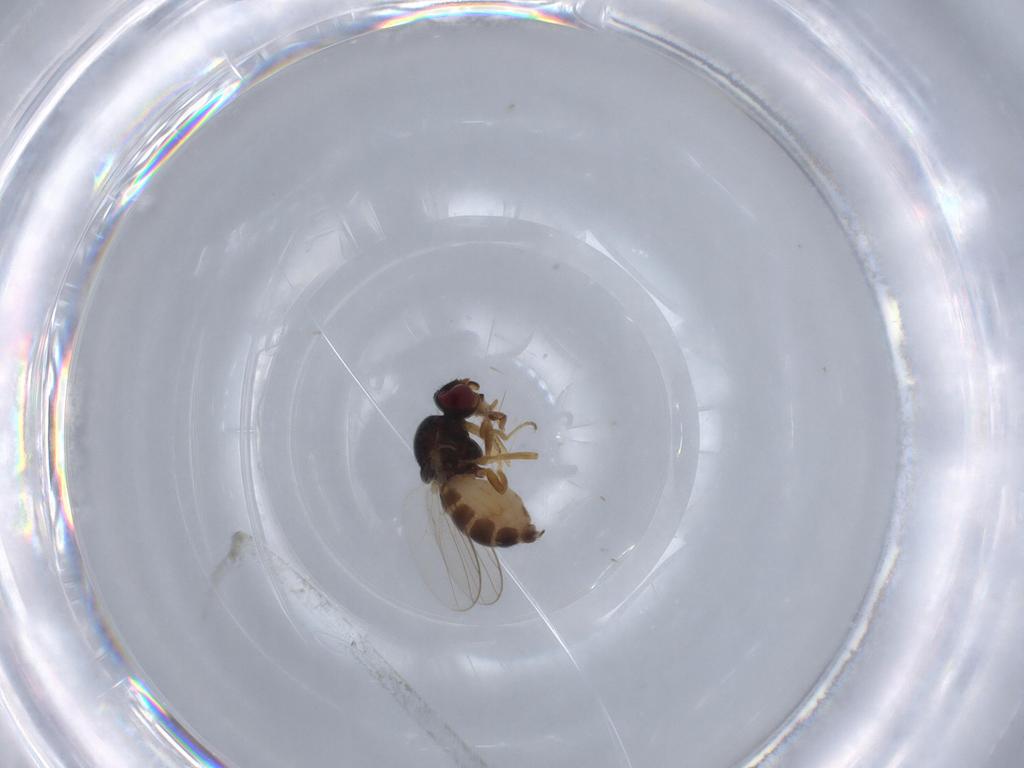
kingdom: Animalia
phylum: Arthropoda
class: Insecta
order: Diptera
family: Chloropidae
